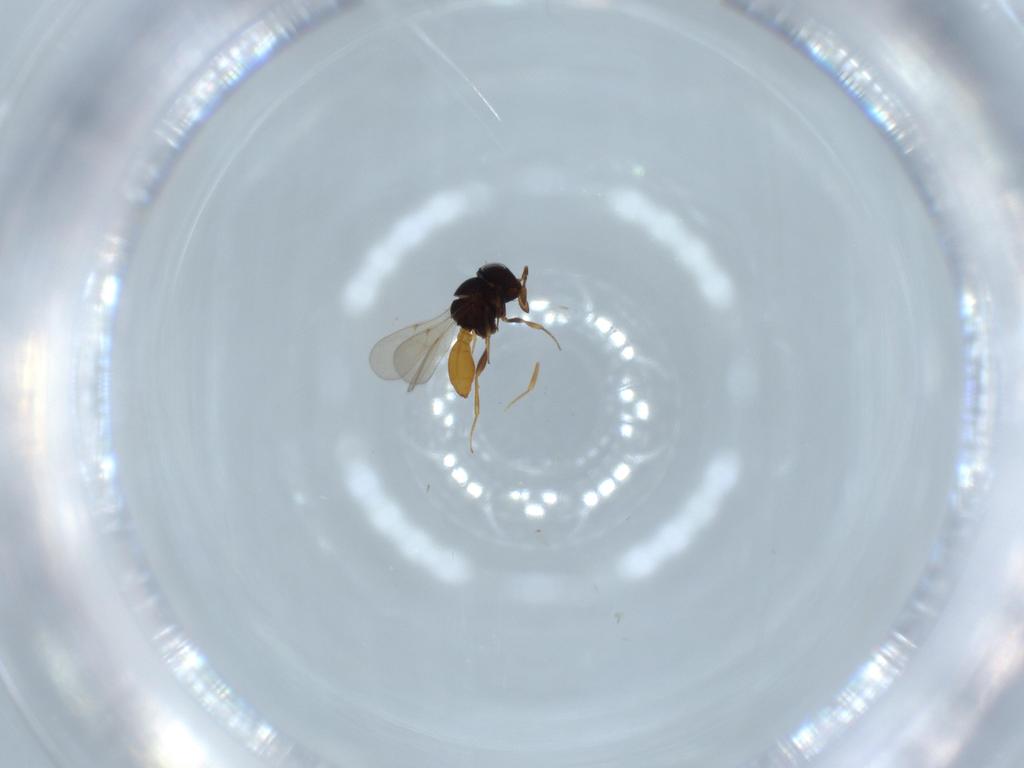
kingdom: Animalia
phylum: Arthropoda
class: Insecta
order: Hymenoptera
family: Scelionidae
